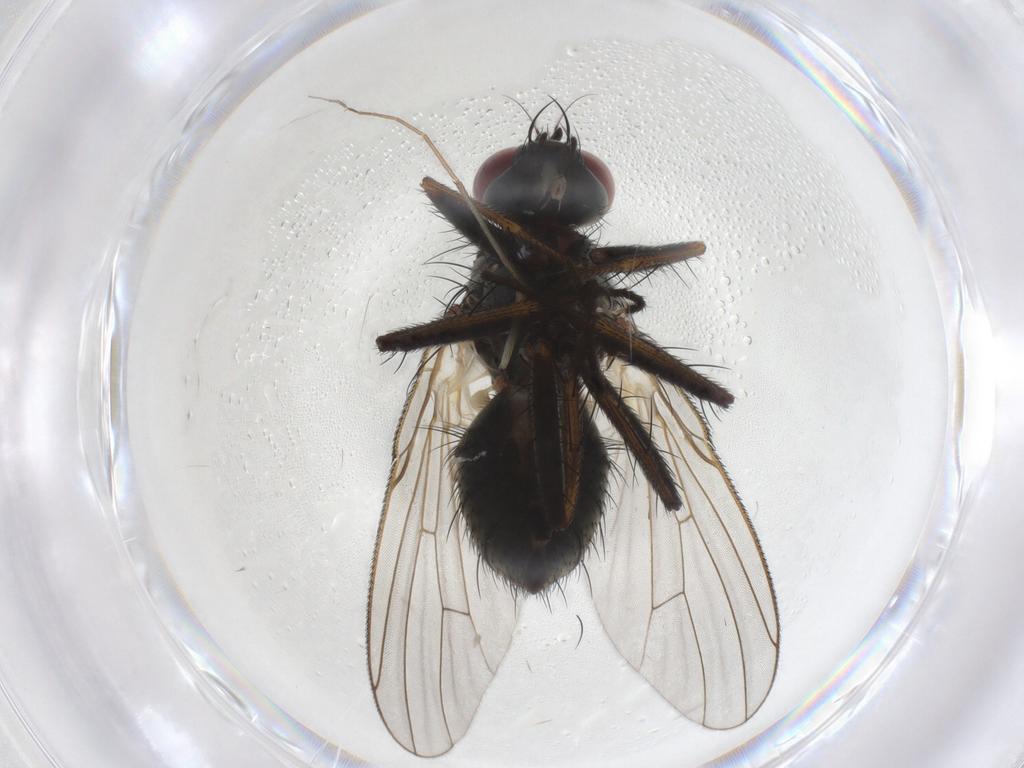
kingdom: Animalia
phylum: Arthropoda
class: Insecta
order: Diptera
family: Muscidae
